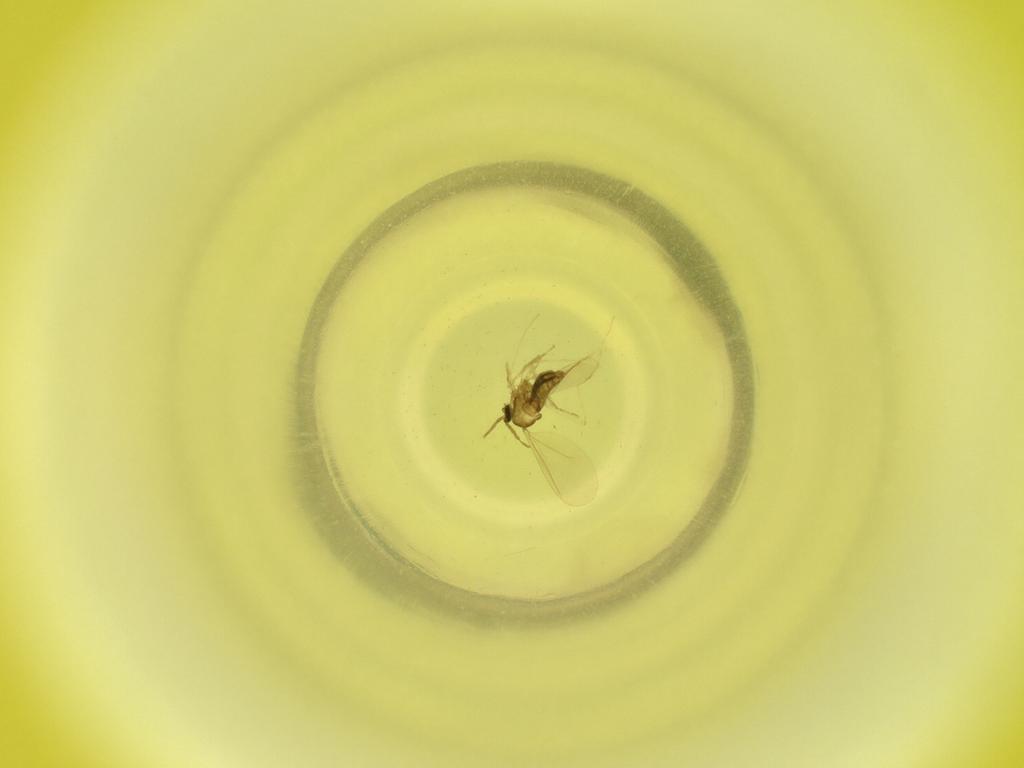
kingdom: Animalia
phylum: Arthropoda
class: Insecta
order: Diptera
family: Cecidomyiidae
